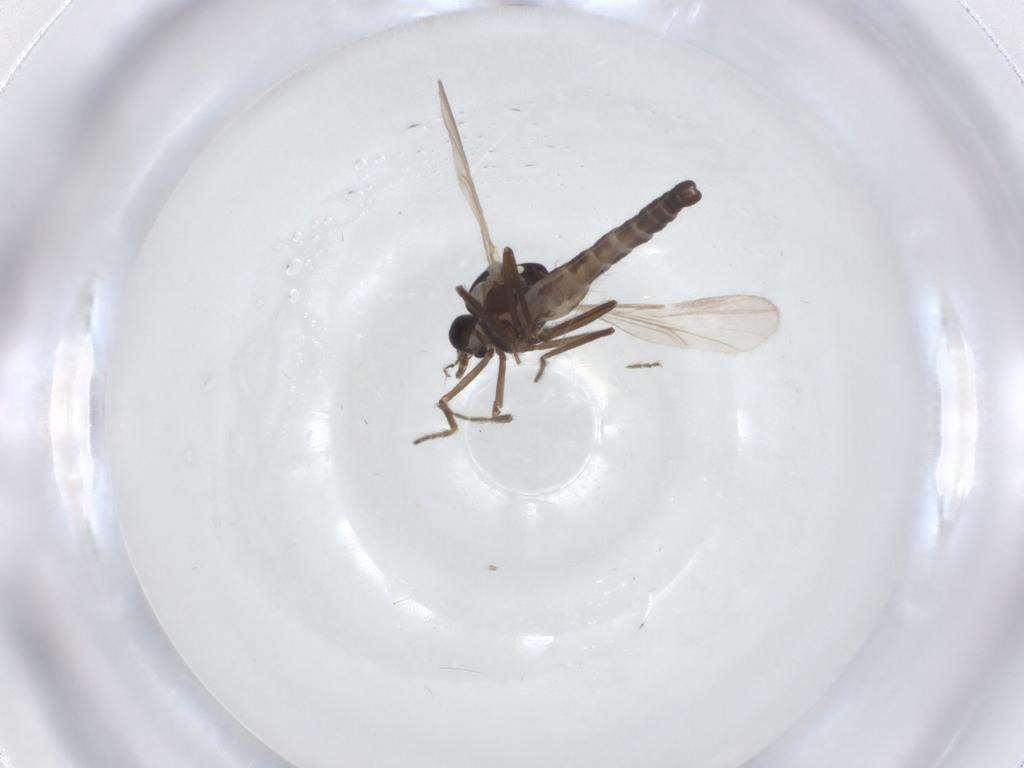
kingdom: Animalia
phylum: Arthropoda
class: Insecta
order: Diptera
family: Ceratopogonidae
